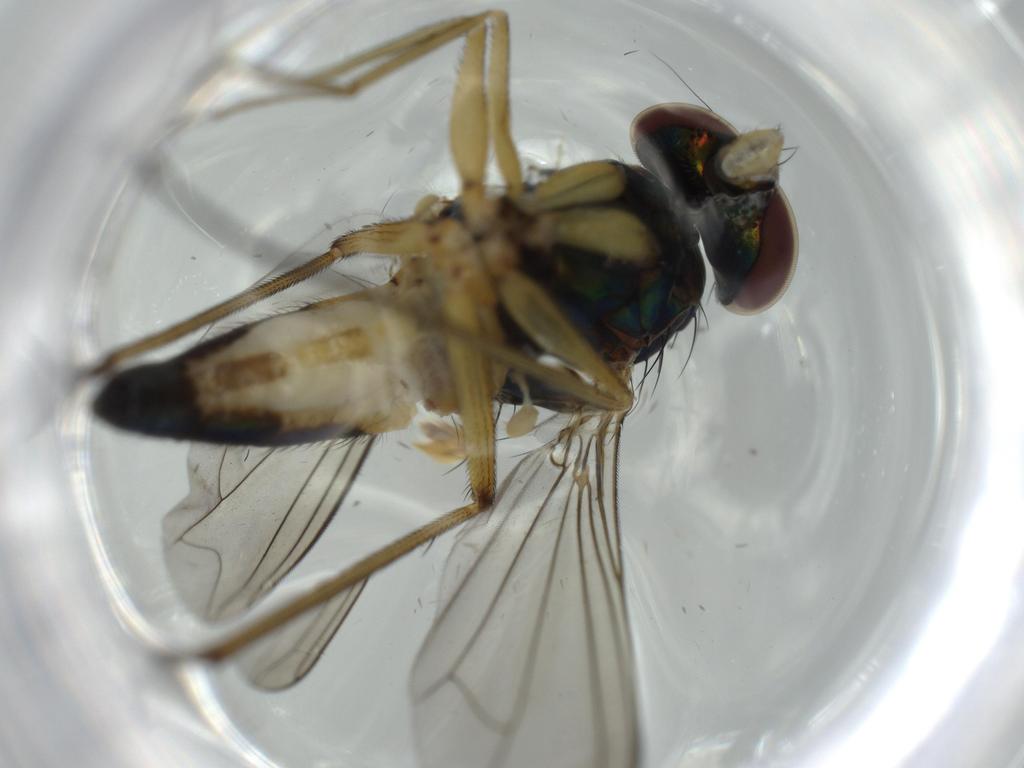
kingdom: Animalia
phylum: Arthropoda
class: Insecta
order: Diptera
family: Dolichopodidae
